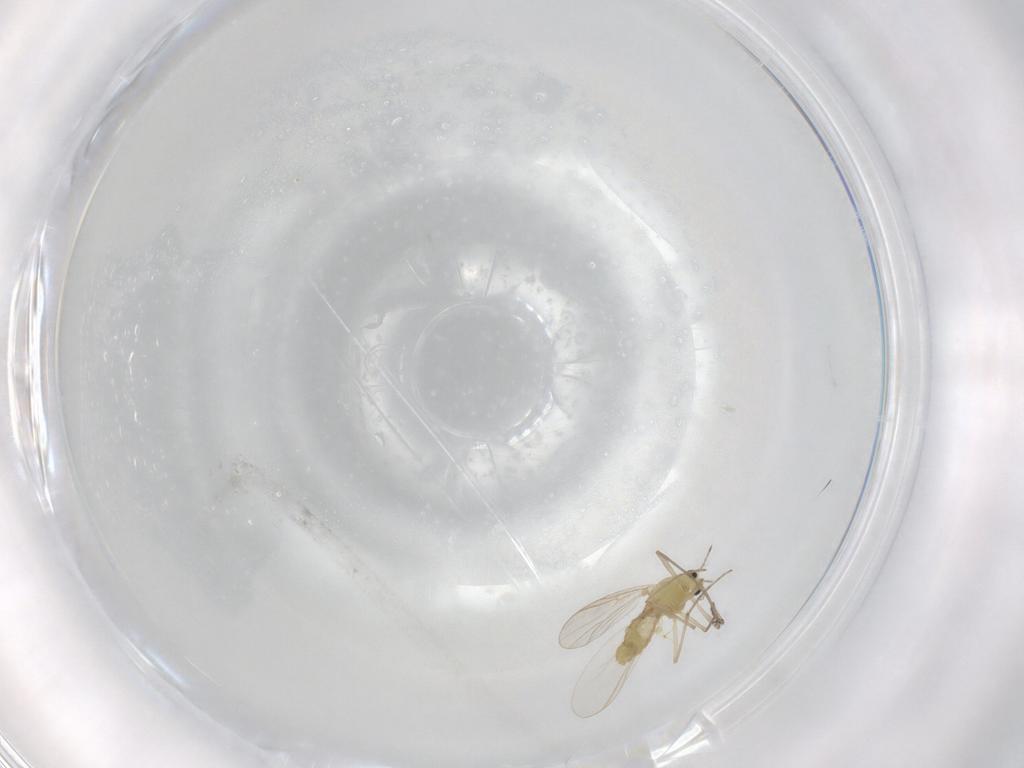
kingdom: Animalia
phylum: Arthropoda
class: Insecta
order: Diptera
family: Chironomidae
